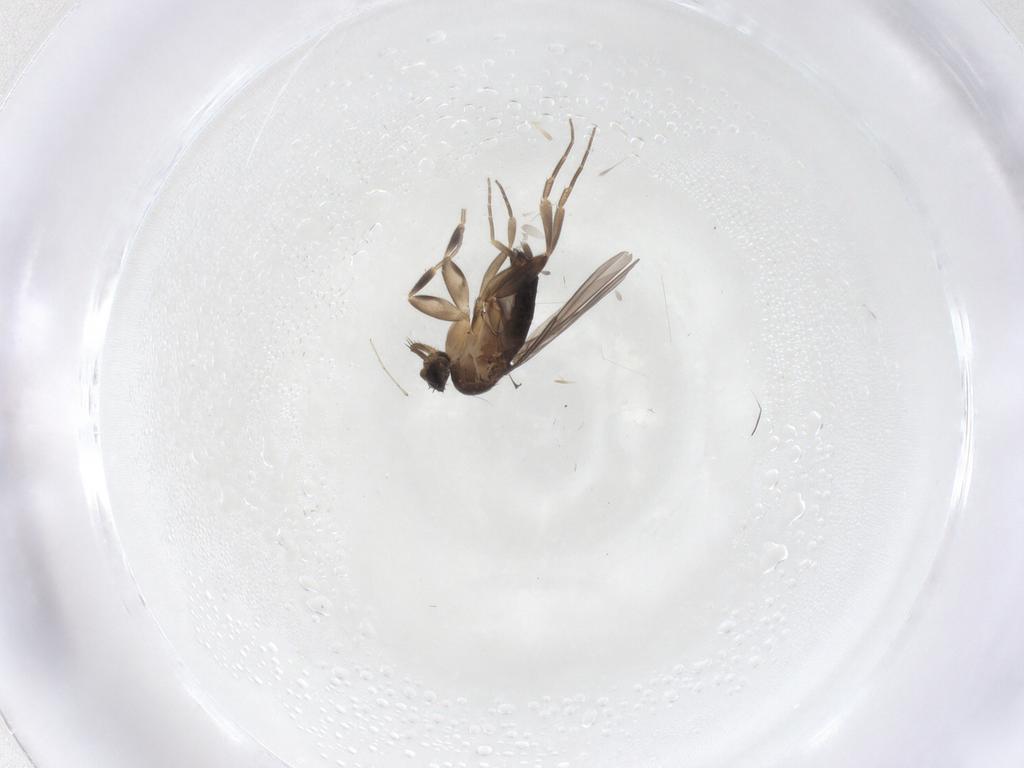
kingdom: Animalia
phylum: Arthropoda
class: Insecta
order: Diptera
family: Phoridae
